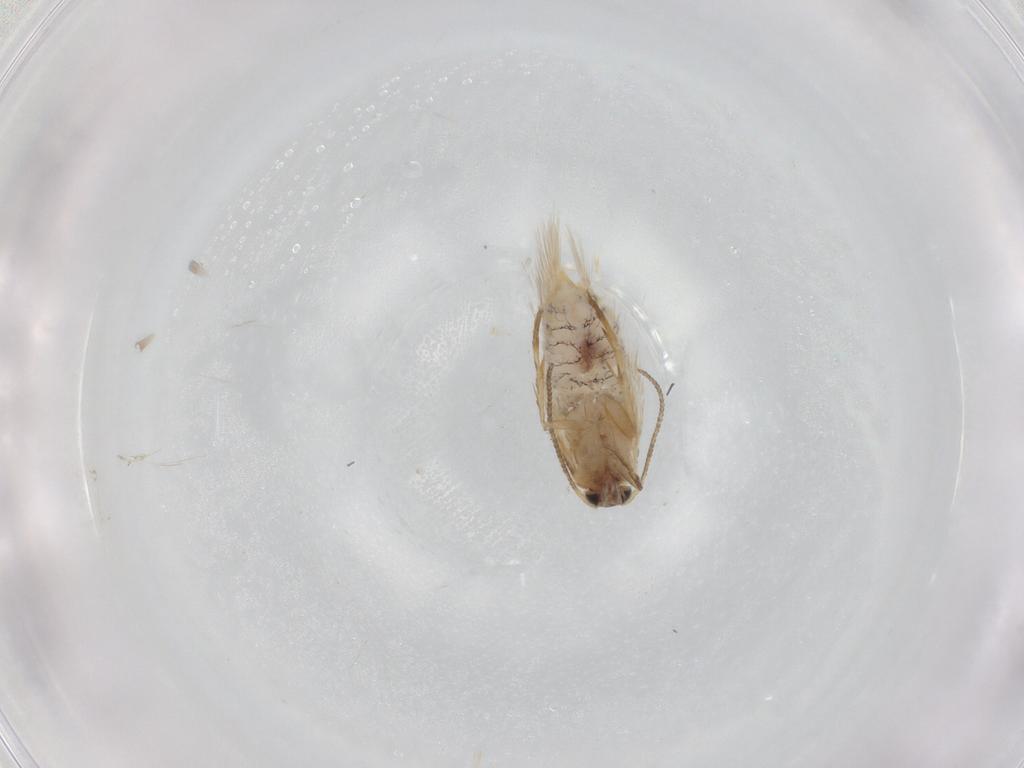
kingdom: Animalia
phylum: Arthropoda
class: Insecta
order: Lepidoptera
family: Nepticulidae
